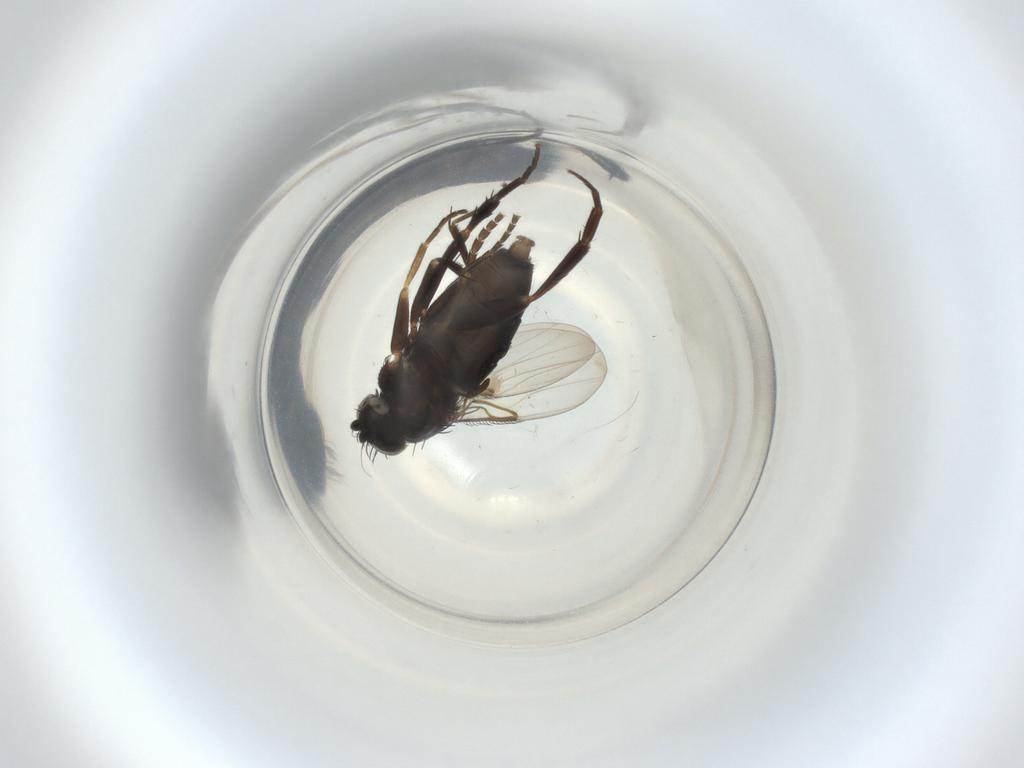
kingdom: Animalia
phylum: Arthropoda
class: Insecta
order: Diptera
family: Phoridae
